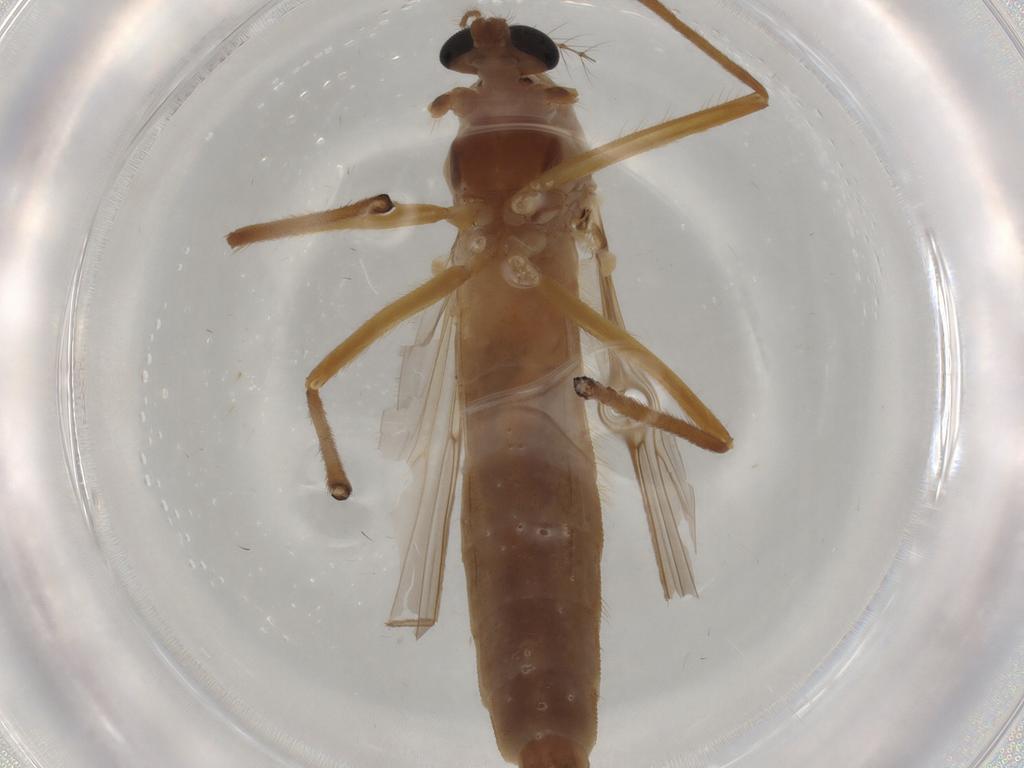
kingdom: Animalia
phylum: Arthropoda
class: Insecta
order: Diptera
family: Chironomidae
